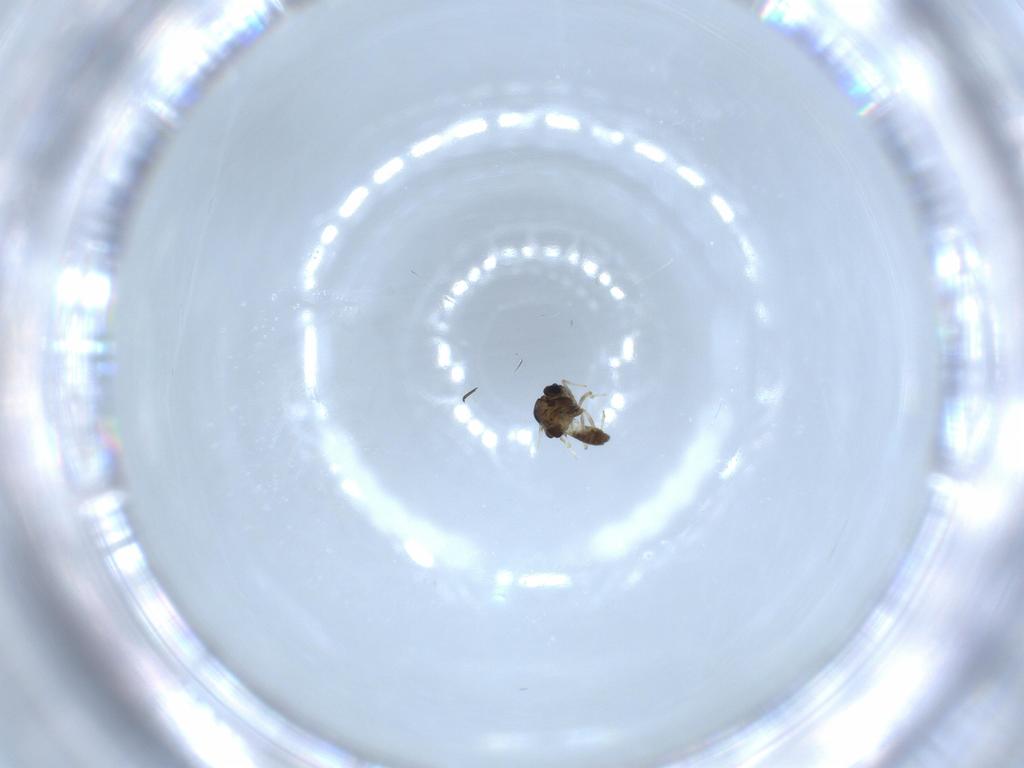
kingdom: Animalia
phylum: Arthropoda
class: Insecta
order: Diptera
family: Chironomidae
